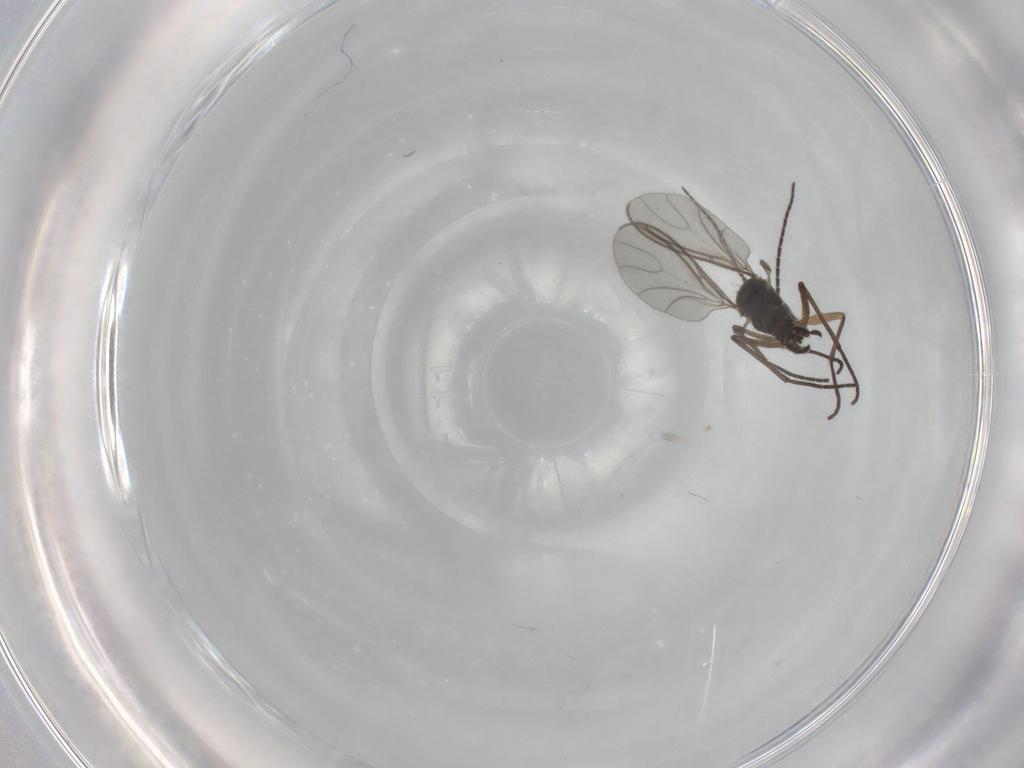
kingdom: Animalia
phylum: Arthropoda
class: Insecta
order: Diptera
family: Sciaridae
